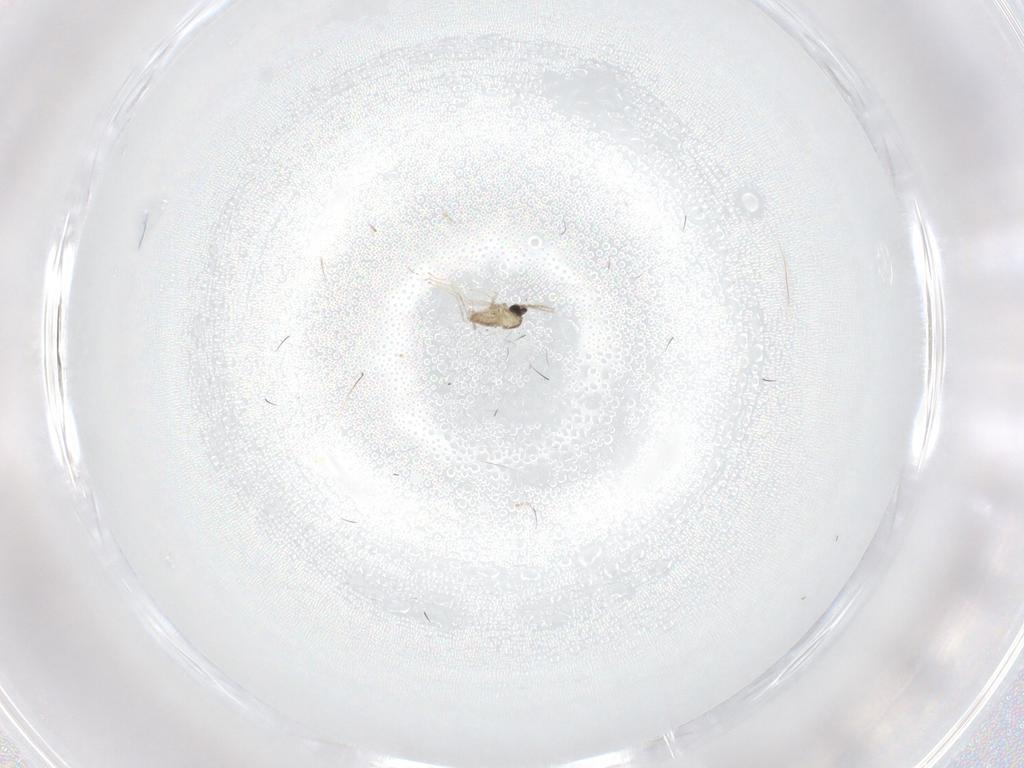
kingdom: Animalia
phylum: Arthropoda
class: Insecta
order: Diptera
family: Cecidomyiidae
